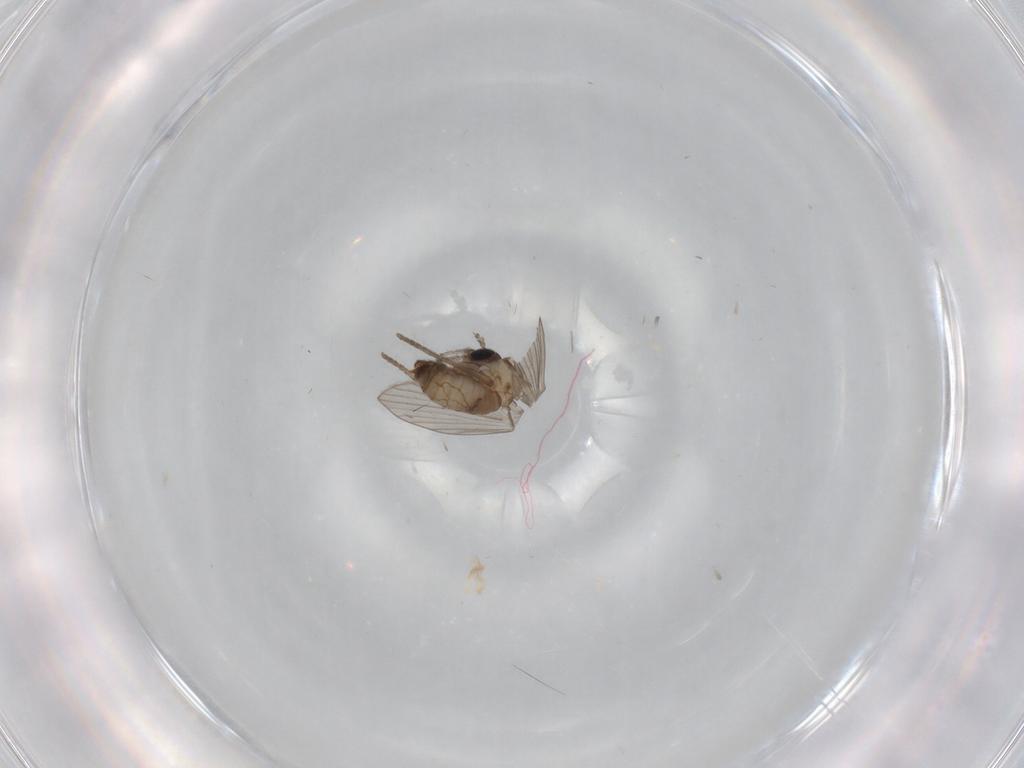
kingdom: Animalia
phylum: Arthropoda
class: Insecta
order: Diptera
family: Psychodidae
